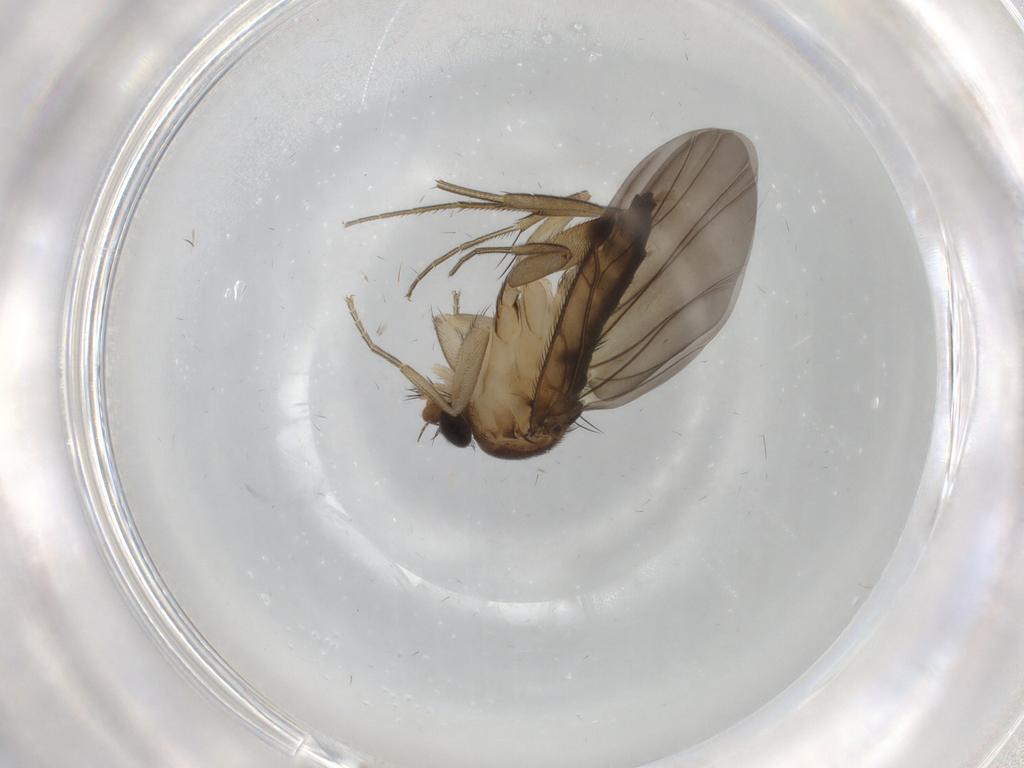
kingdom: Animalia
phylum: Arthropoda
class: Insecta
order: Diptera
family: Phoridae
